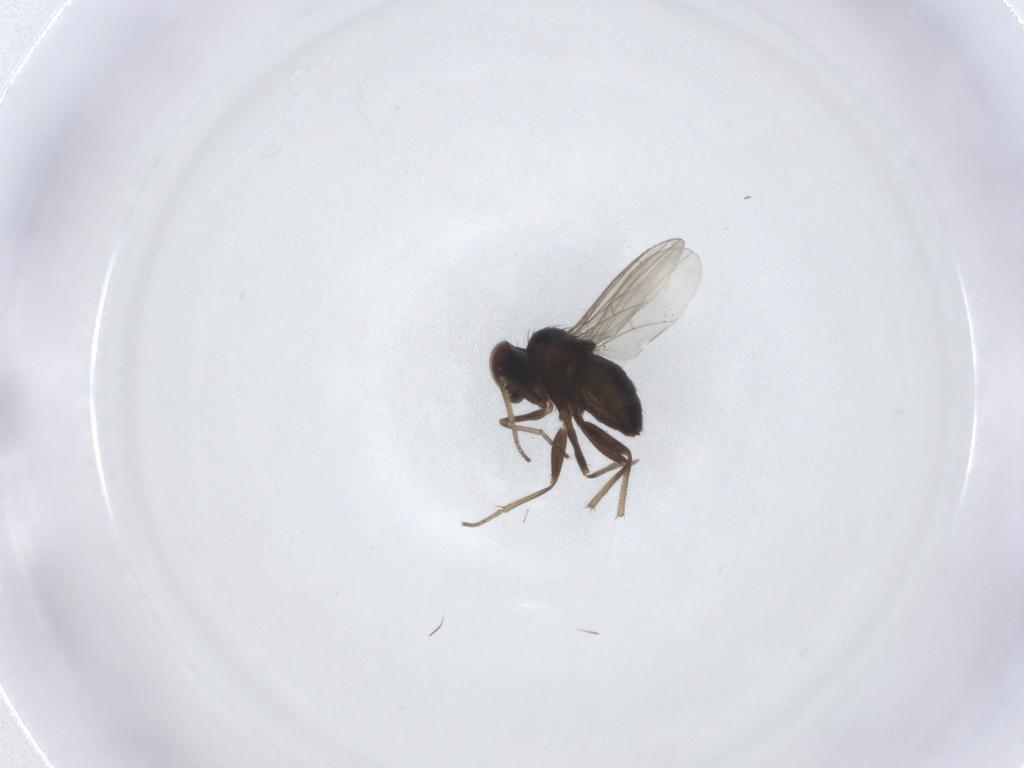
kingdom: Animalia
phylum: Arthropoda
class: Insecta
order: Diptera
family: Dolichopodidae
